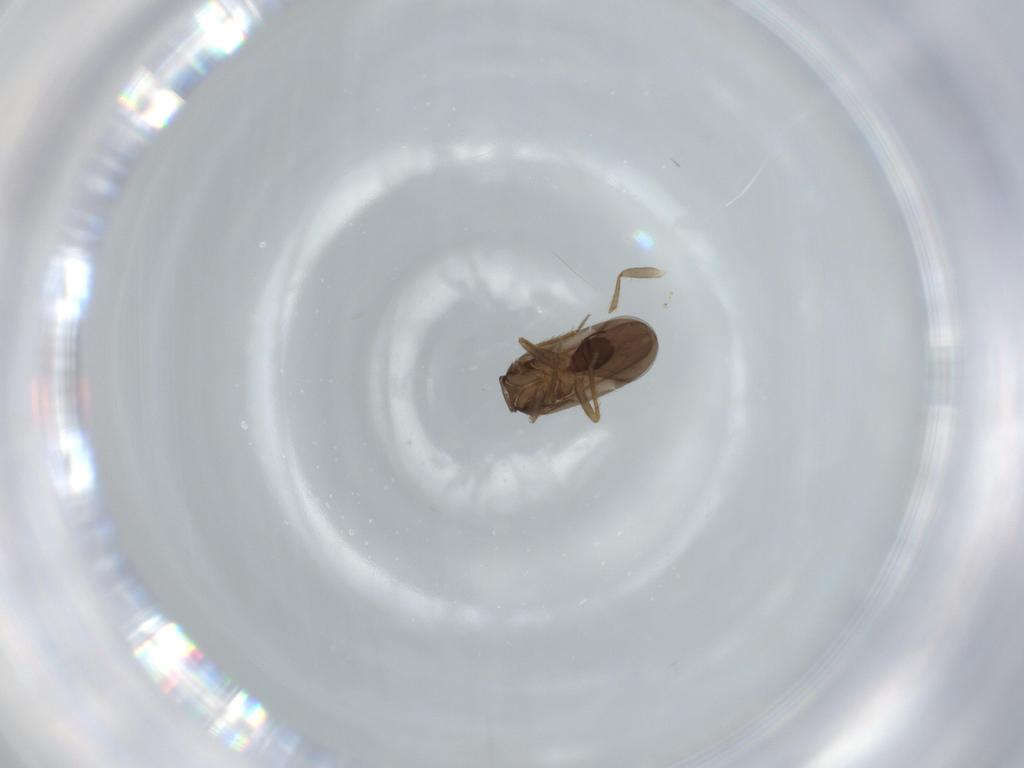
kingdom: Animalia
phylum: Arthropoda
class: Insecta
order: Hemiptera
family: Ceratocombidae
